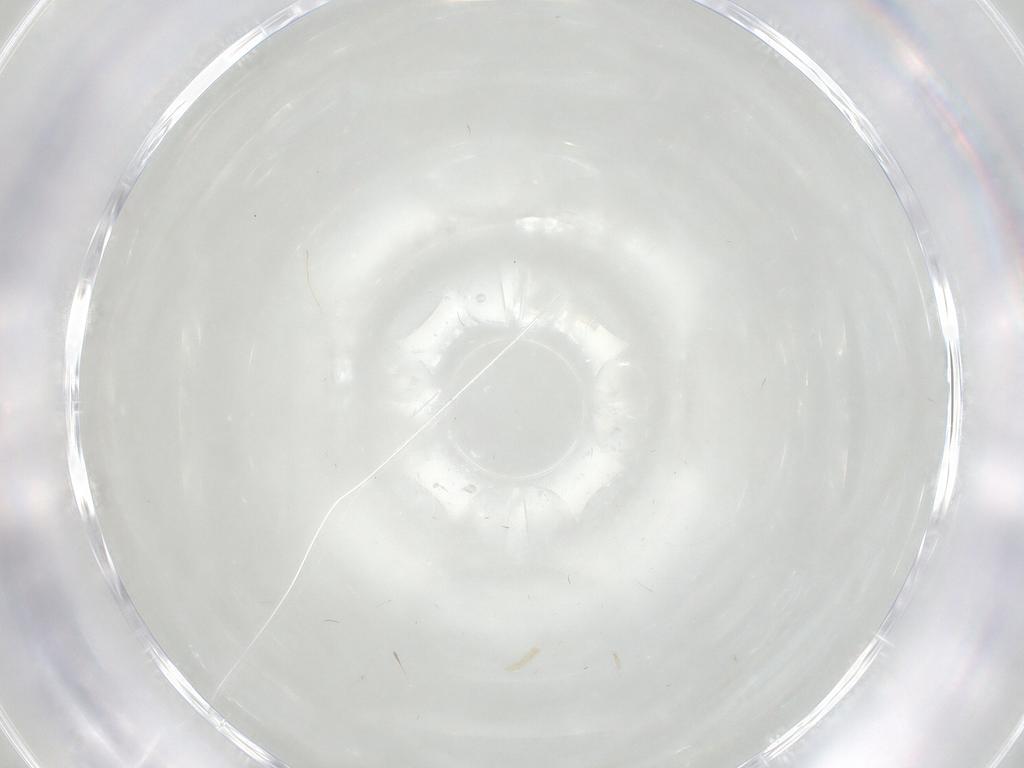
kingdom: Animalia
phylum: Arthropoda
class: Insecta
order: Diptera
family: Cecidomyiidae
